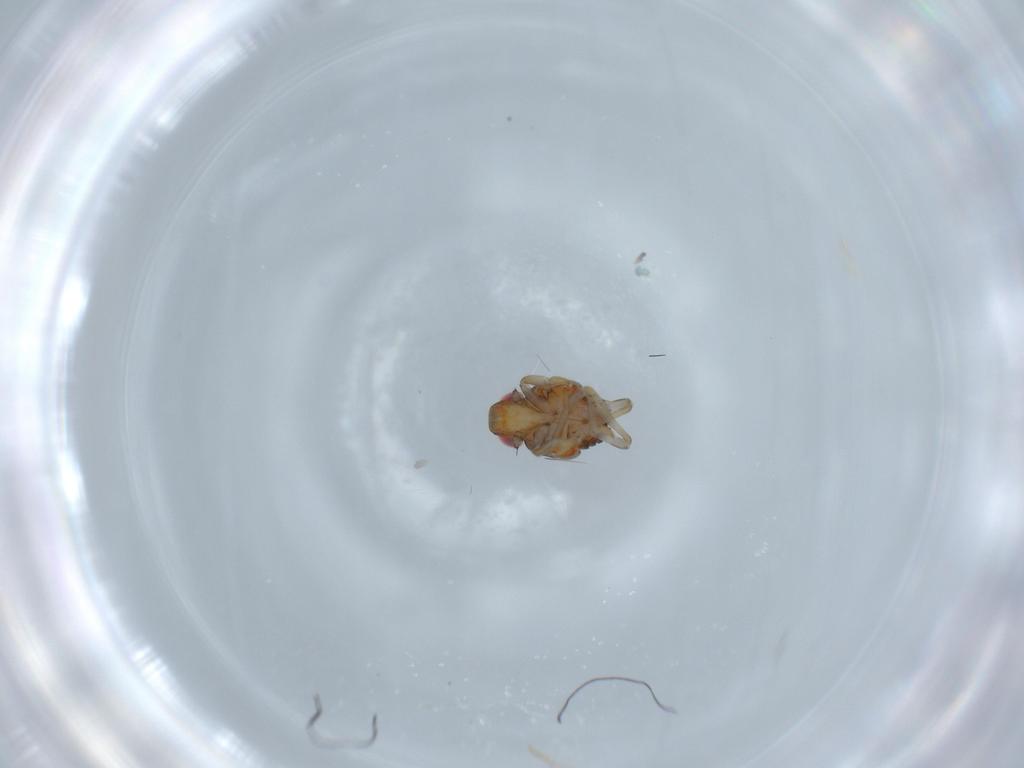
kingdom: Animalia
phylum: Arthropoda
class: Insecta
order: Hemiptera
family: Issidae
